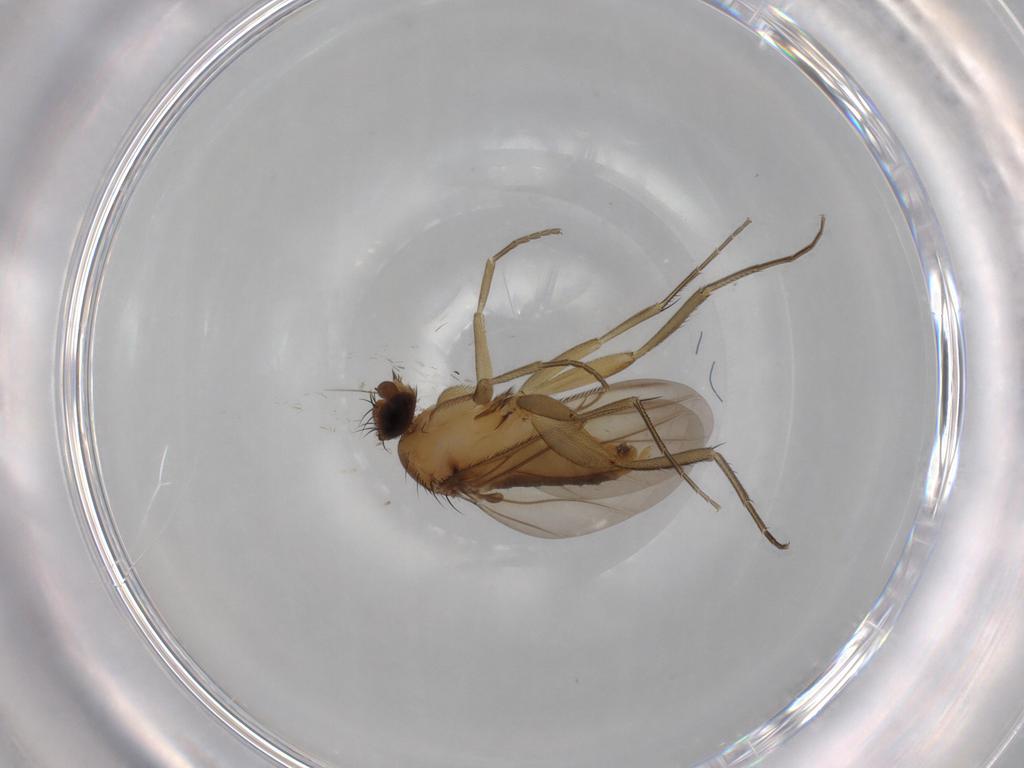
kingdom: Animalia
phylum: Arthropoda
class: Insecta
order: Diptera
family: Phoridae
